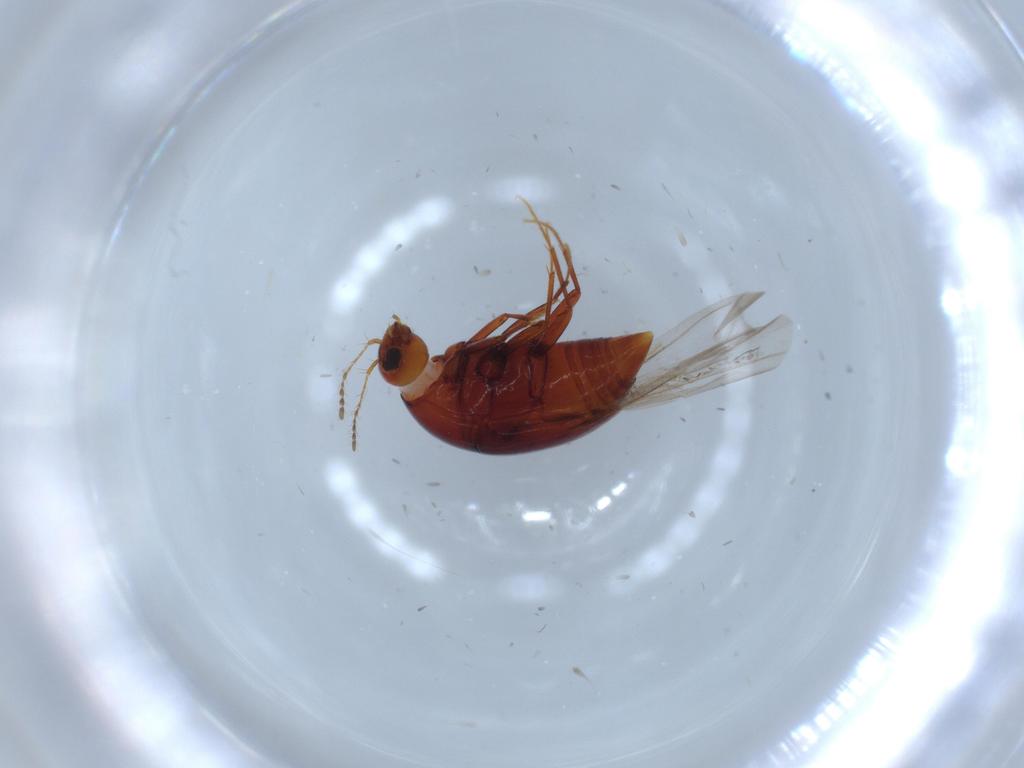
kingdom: Animalia
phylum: Arthropoda
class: Insecta
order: Coleoptera
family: Staphylinidae
